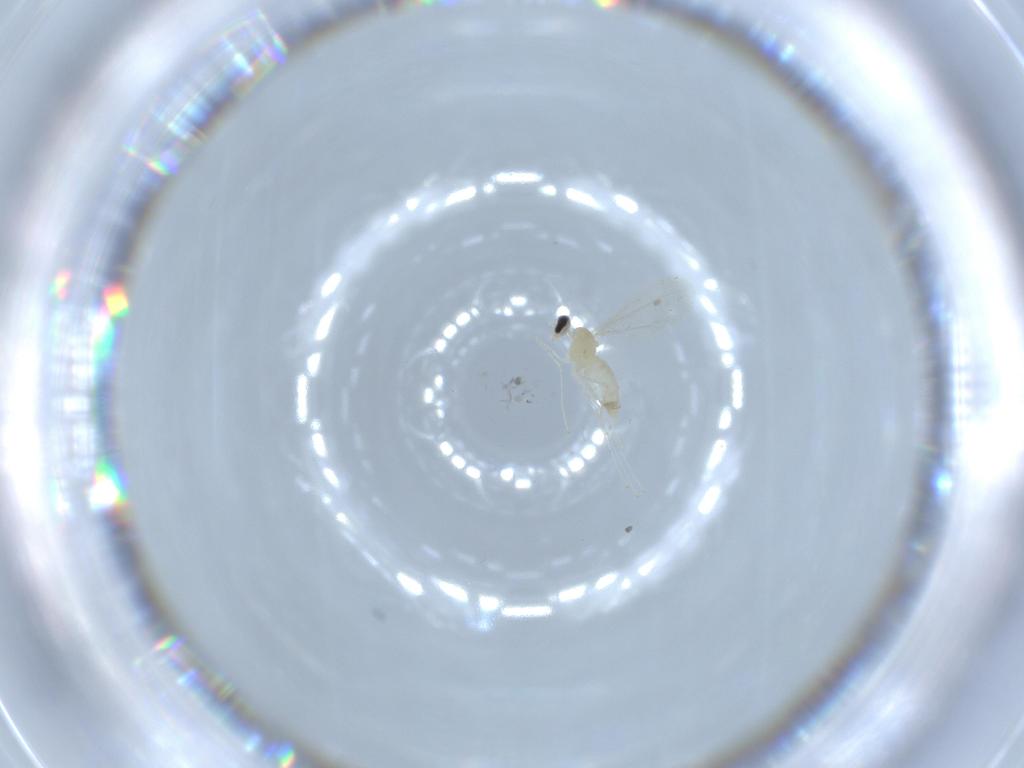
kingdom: Animalia
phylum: Arthropoda
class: Insecta
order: Diptera
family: Cecidomyiidae
